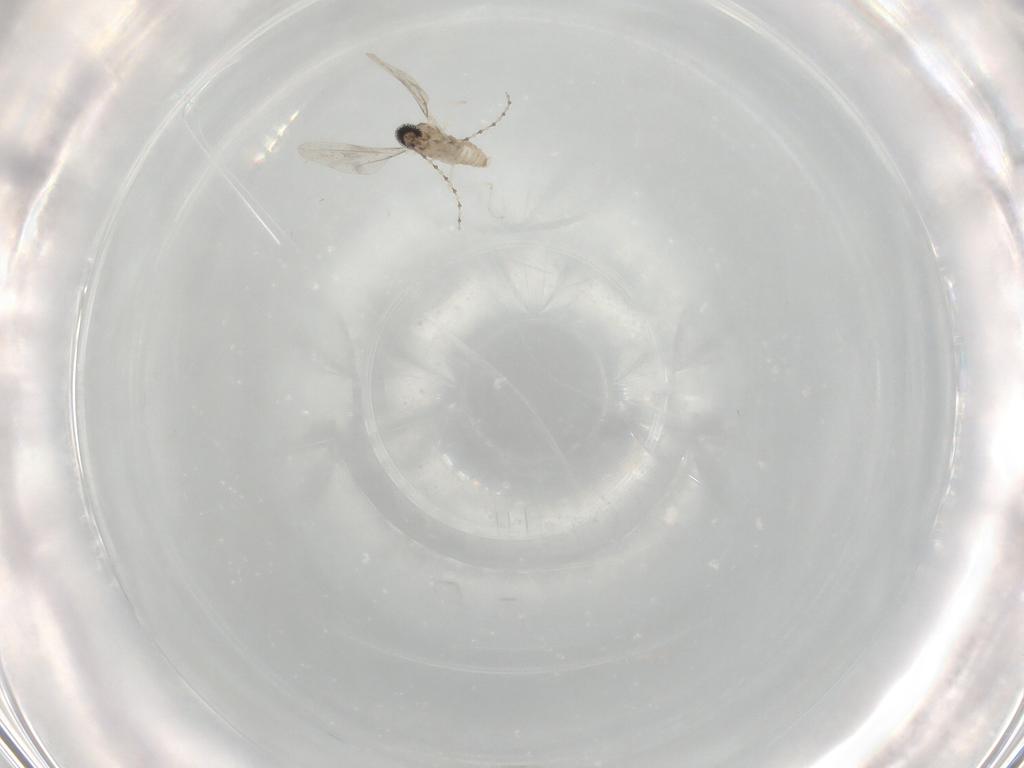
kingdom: Animalia
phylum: Arthropoda
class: Insecta
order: Diptera
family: Cecidomyiidae
